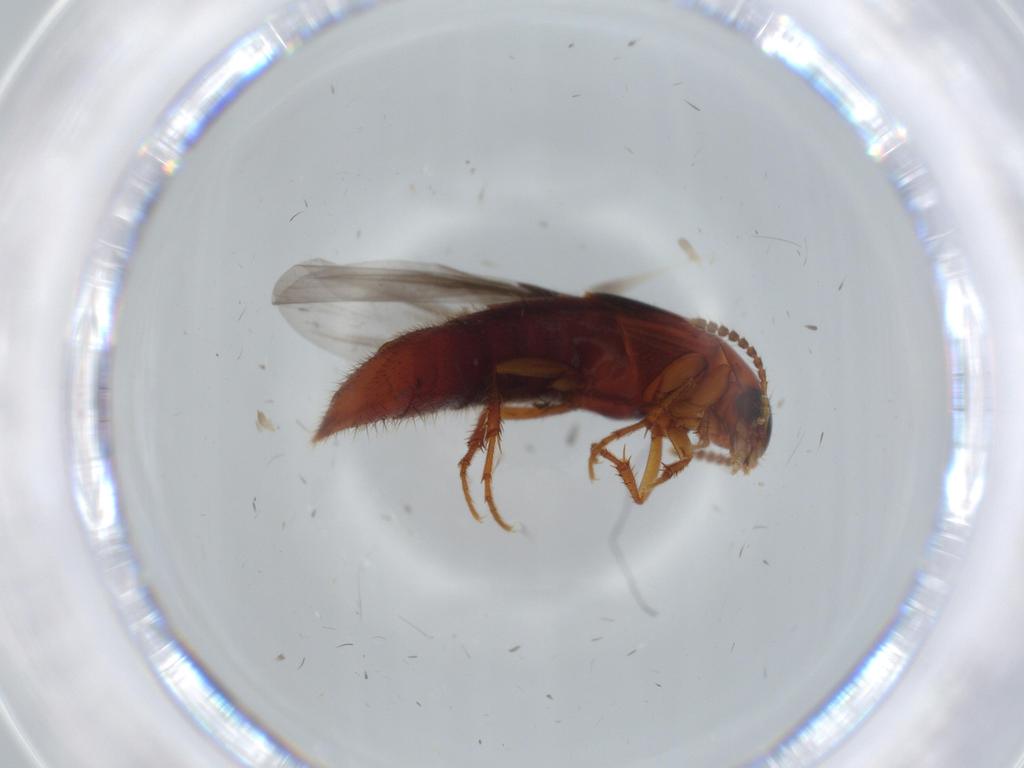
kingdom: Animalia
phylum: Arthropoda
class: Insecta
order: Coleoptera
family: Staphylinidae
